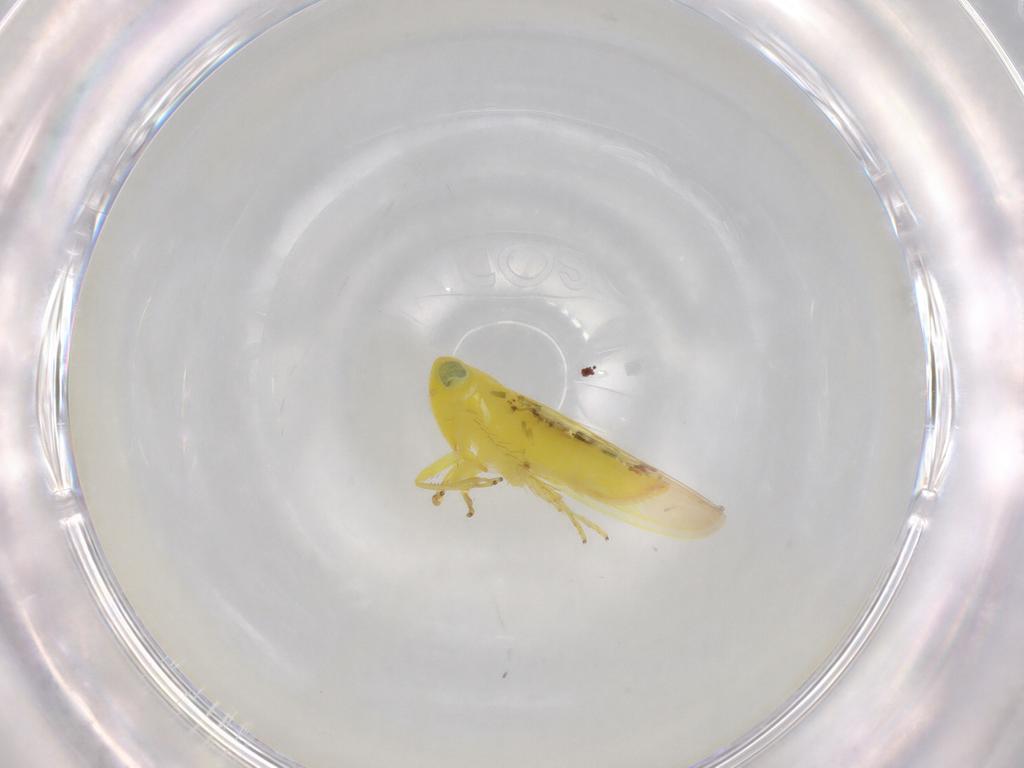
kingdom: Animalia
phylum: Arthropoda
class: Insecta
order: Hemiptera
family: Cicadellidae
